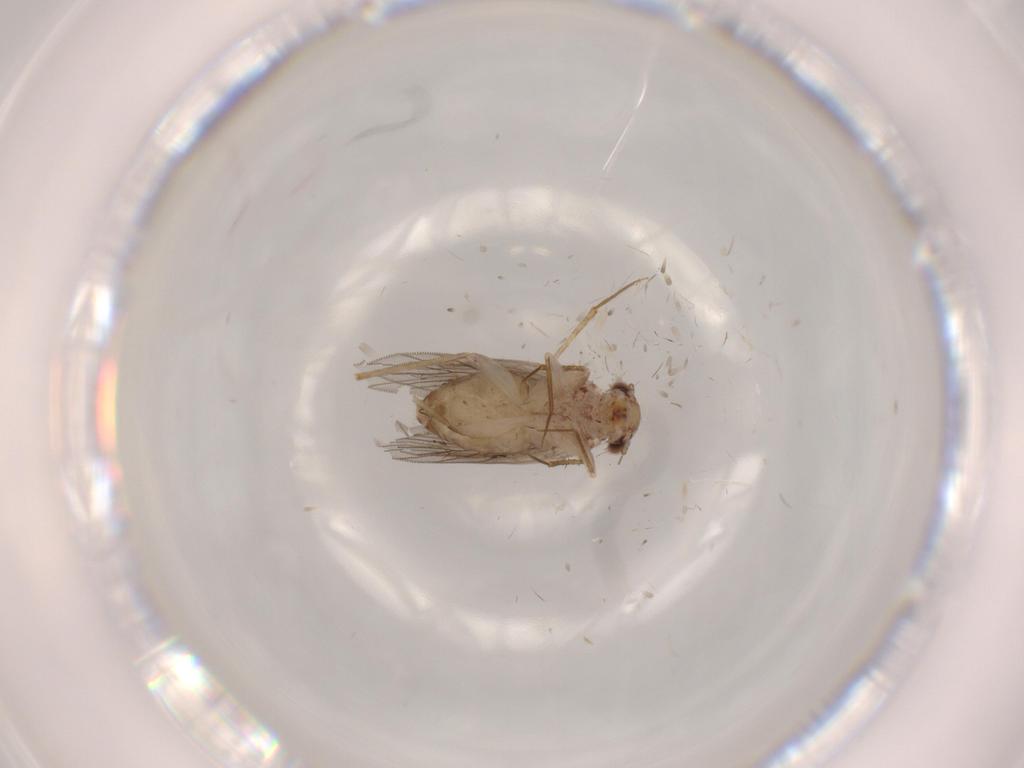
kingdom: Animalia
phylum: Arthropoda
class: Insecta
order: Psocodea
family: Lepidopsocidae
